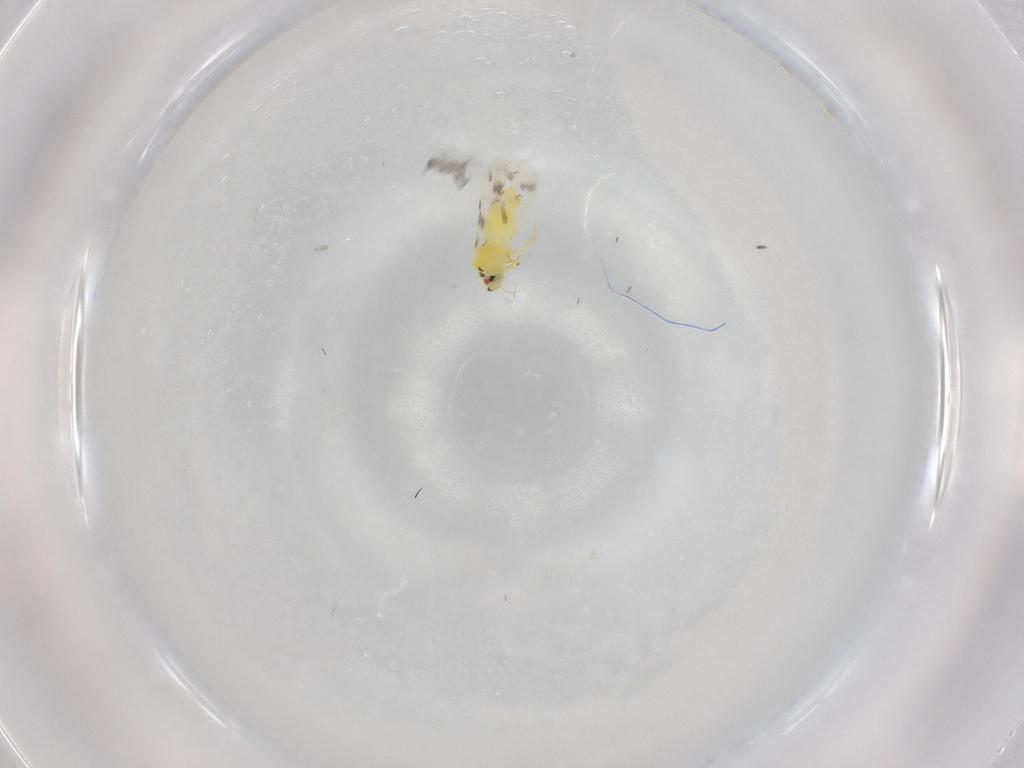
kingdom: Animalia
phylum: Arthropoda
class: Insecta
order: Hemiptera
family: Aleyrodidae
